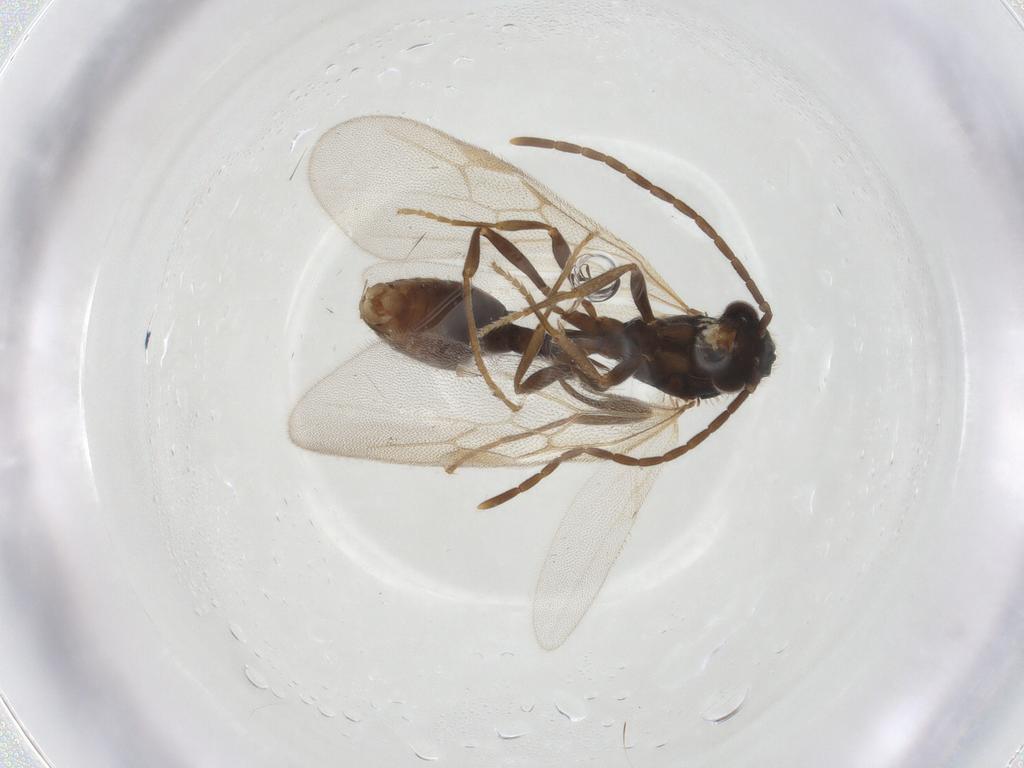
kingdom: Animalia
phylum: Arthropoda
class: Insecta
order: Hymenoptera
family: Formicidae
